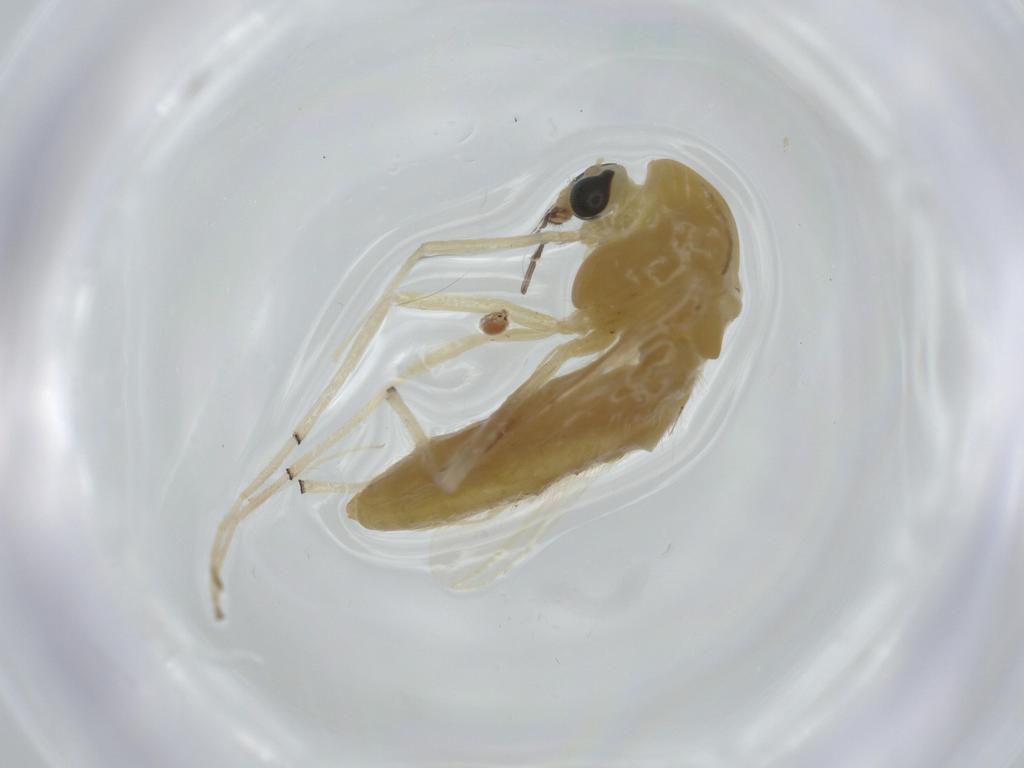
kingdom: Animalia
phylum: Arthropoda
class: Insecta
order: Diptera
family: Chironomidae
